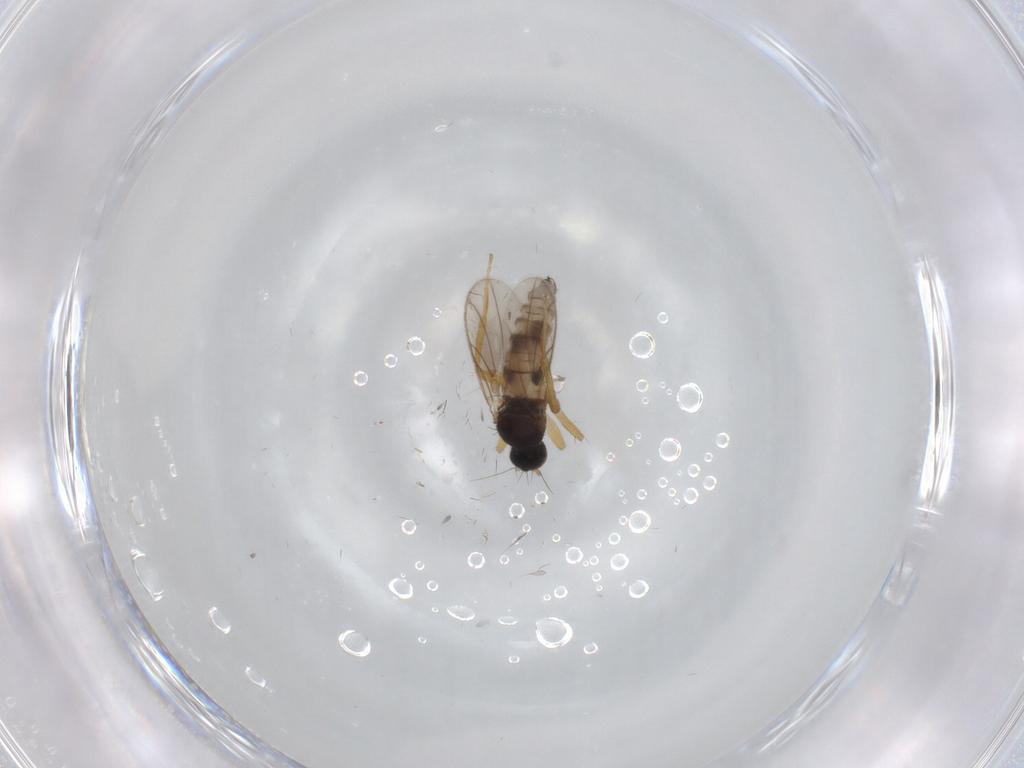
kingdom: Animalia
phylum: Arthropoda
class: Insecta
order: Diptera
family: Hybotidae
